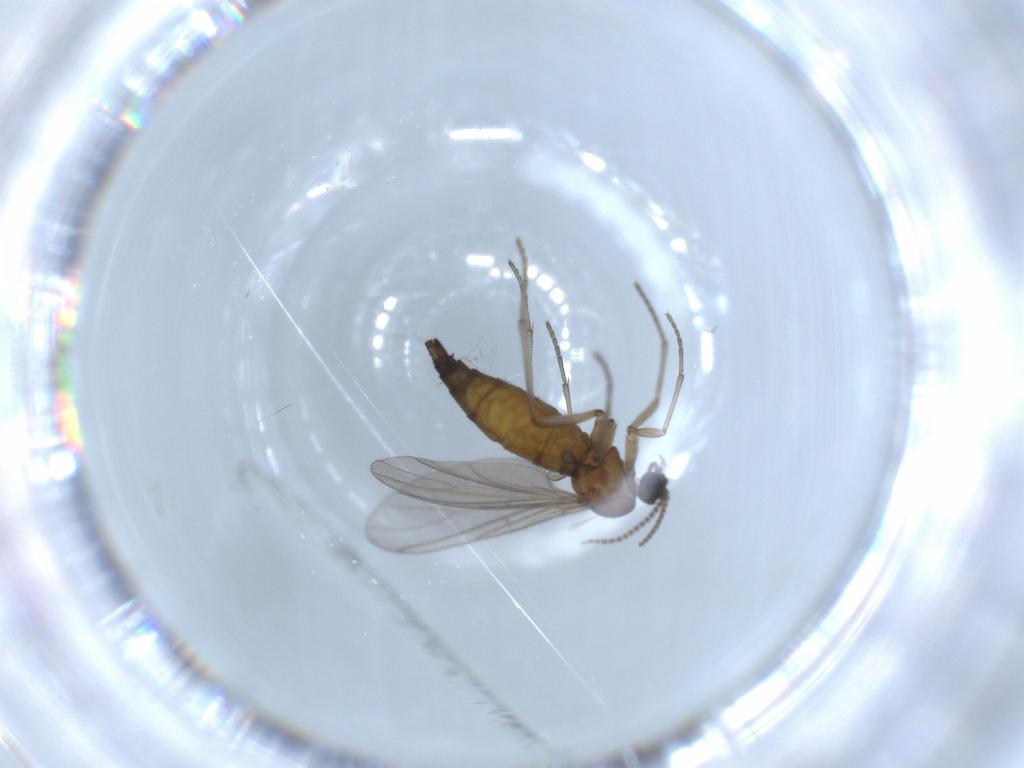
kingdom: Animalia
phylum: Arthropoda
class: Insecta
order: Diptera
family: Sciaridae
